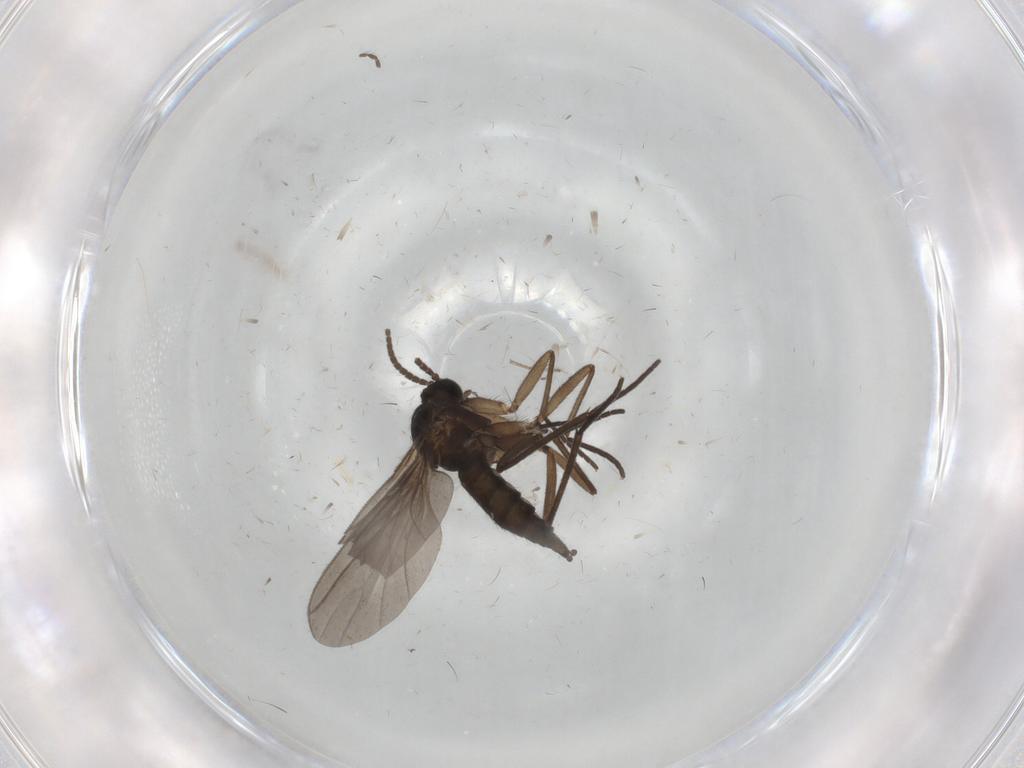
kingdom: Animalia
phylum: Arthropoda
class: Insecta
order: Diptera
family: Sciaridae
